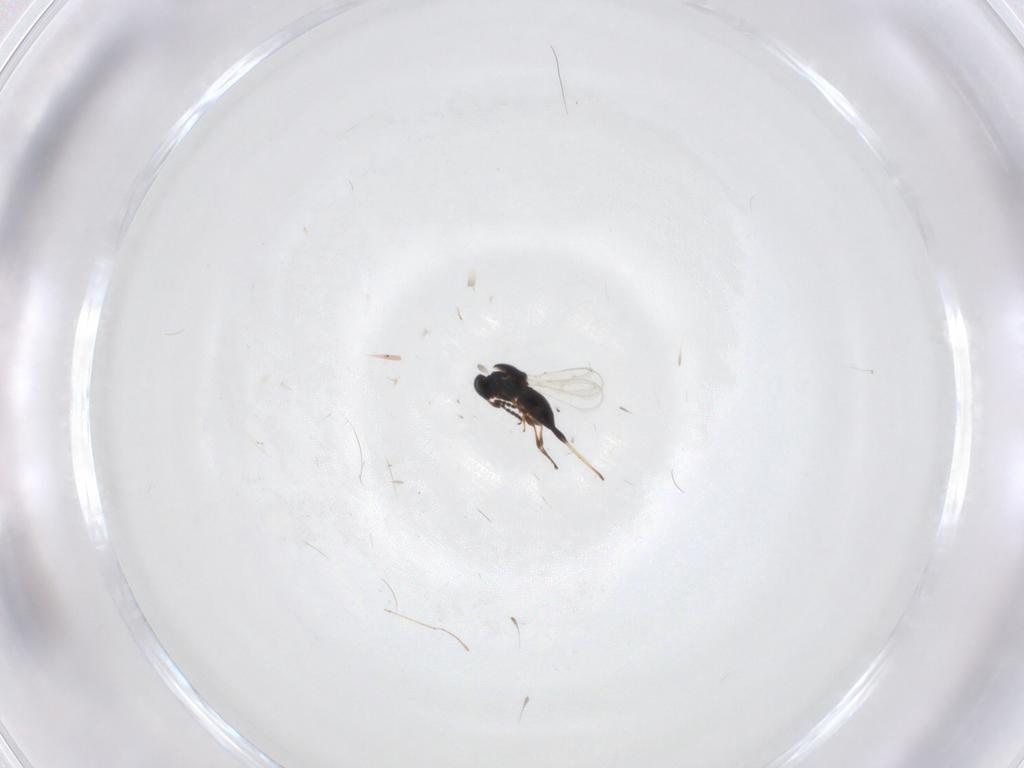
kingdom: Animalia
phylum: Arthropoda
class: Insecta
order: Hymenoptera
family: Platygastridae
